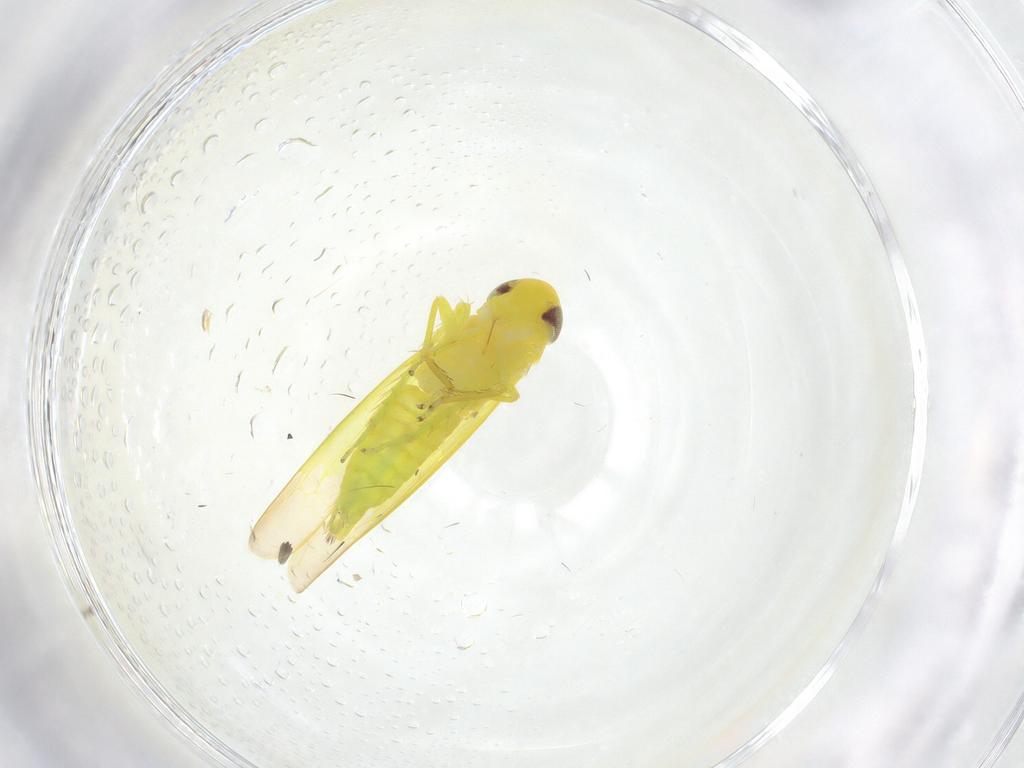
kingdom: Animalia
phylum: Arthropoda
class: Insecta
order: Hemiptera
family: Cicadellidae
